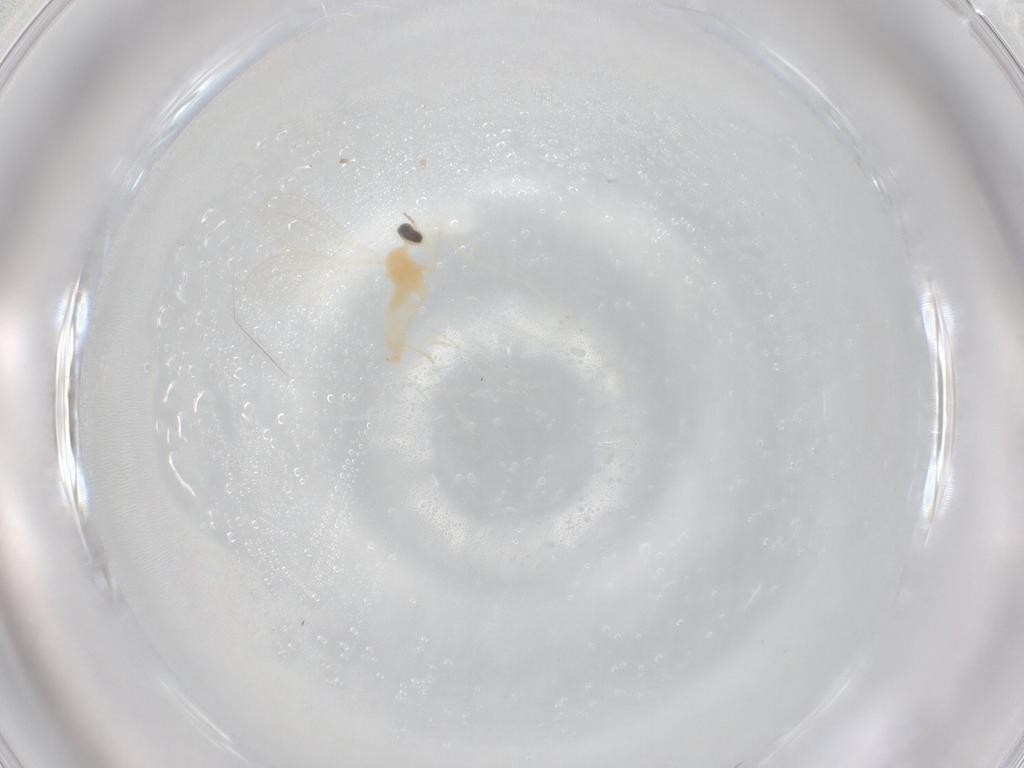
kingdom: Animalia
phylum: Arthropoda
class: Insecta
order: Diptera
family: Cecidomyiidae
